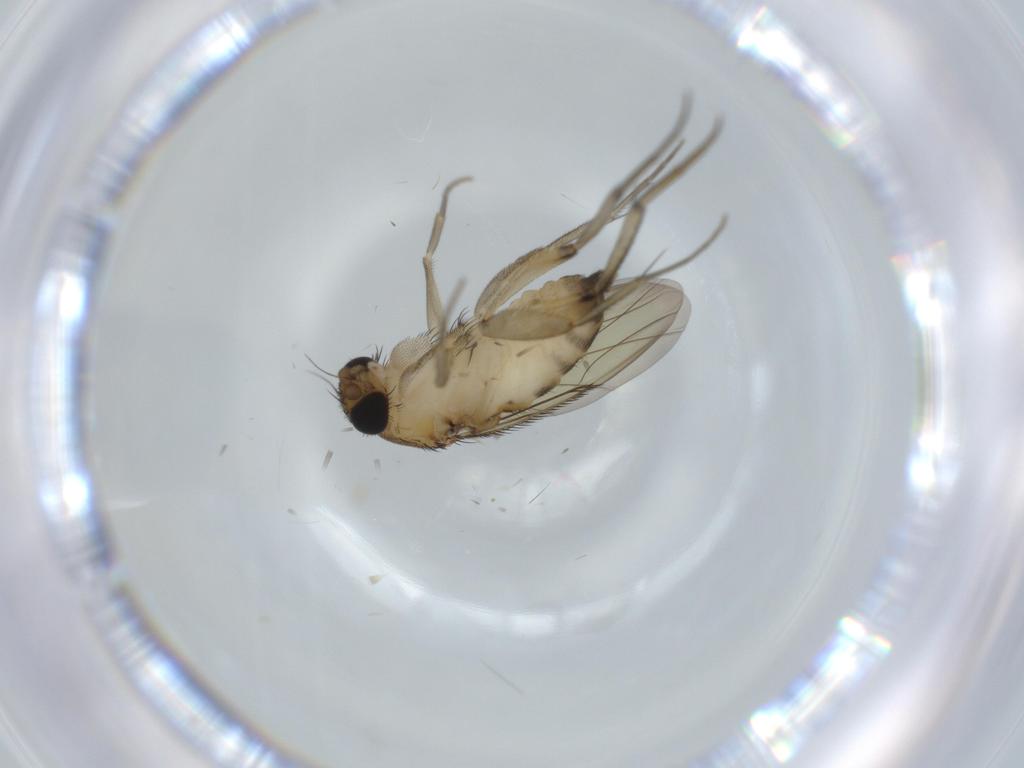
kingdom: Animalia
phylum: Arthropoda
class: Insecta
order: Diptera
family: Phoridae
